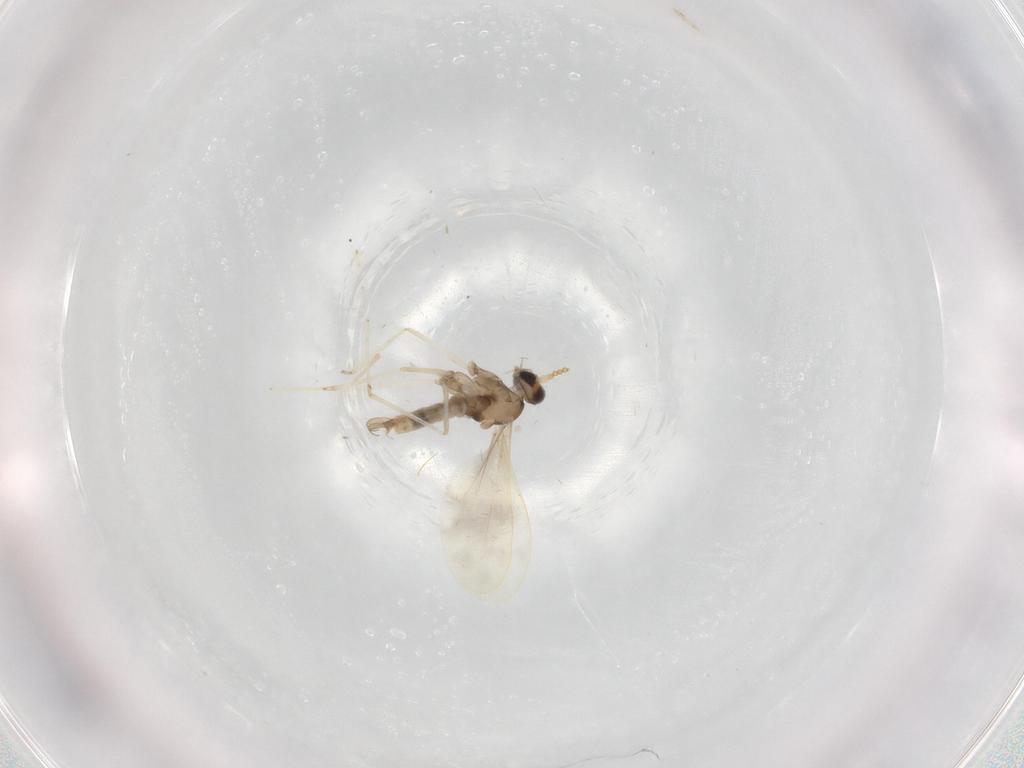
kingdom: Animalia
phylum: Arthropoda
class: Insecta
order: Diptera
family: Cecidomyiidae
